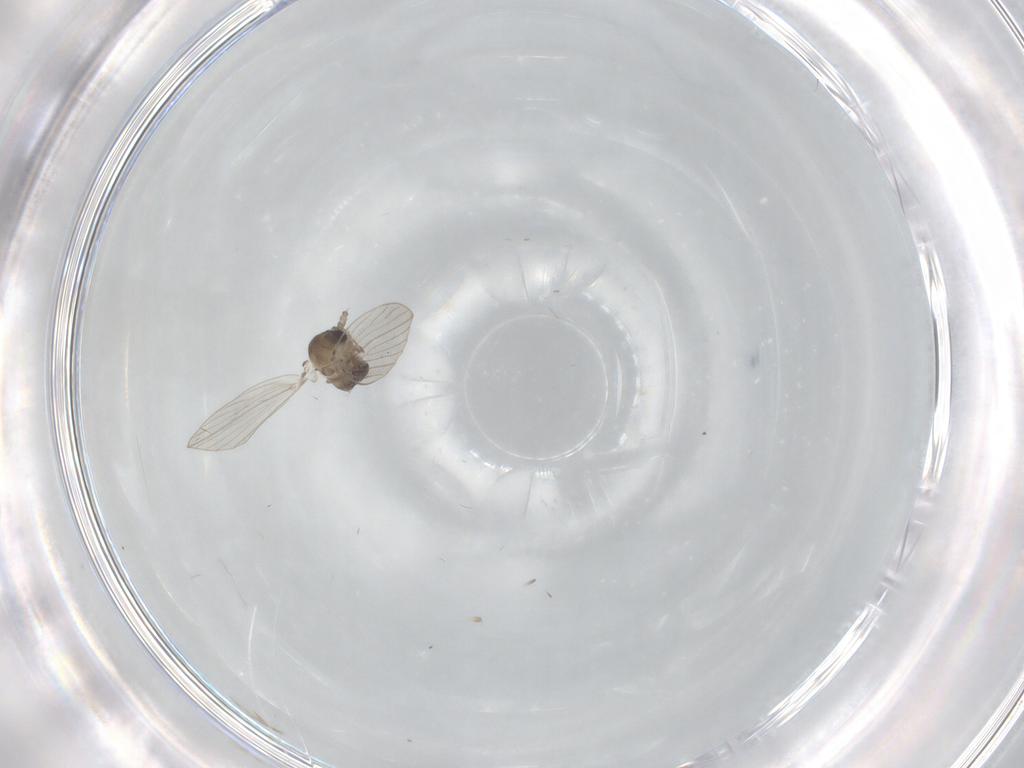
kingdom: Animalia
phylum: Arthropoda
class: Insecta
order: Diptera
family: Psychodidae
